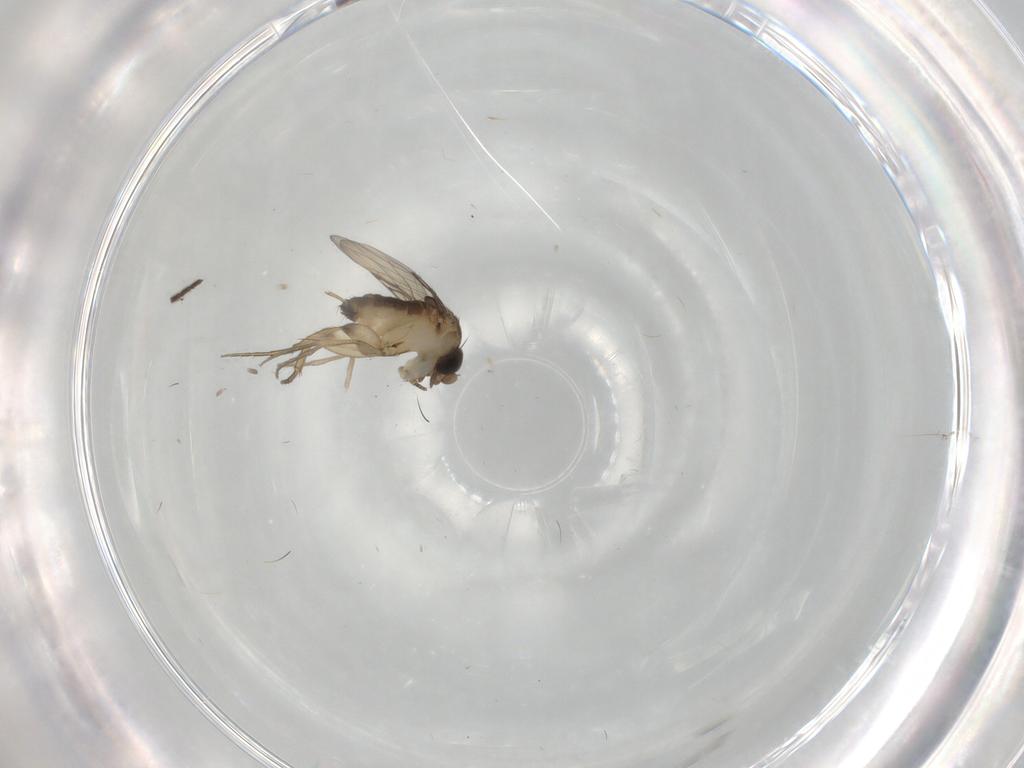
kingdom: Animalia
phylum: Arthropoda
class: Insecta
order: Diptera
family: Phoridae
